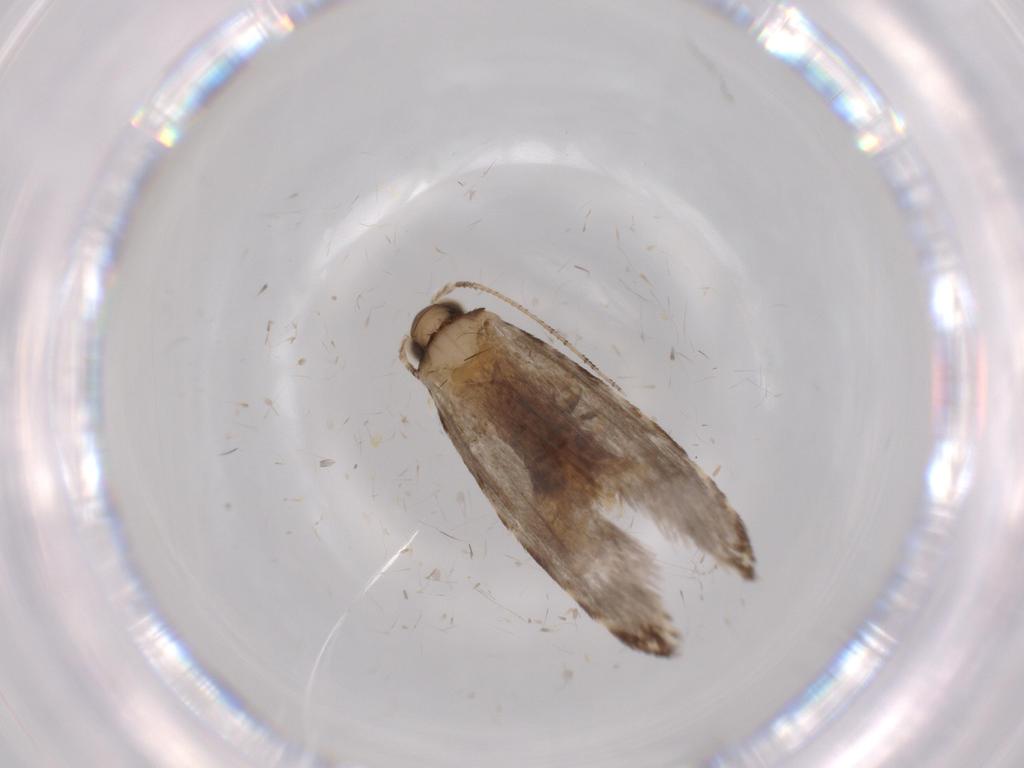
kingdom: Animalia
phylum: Arthropoda
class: Insecta
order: Lepidoptera
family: Tineidae
